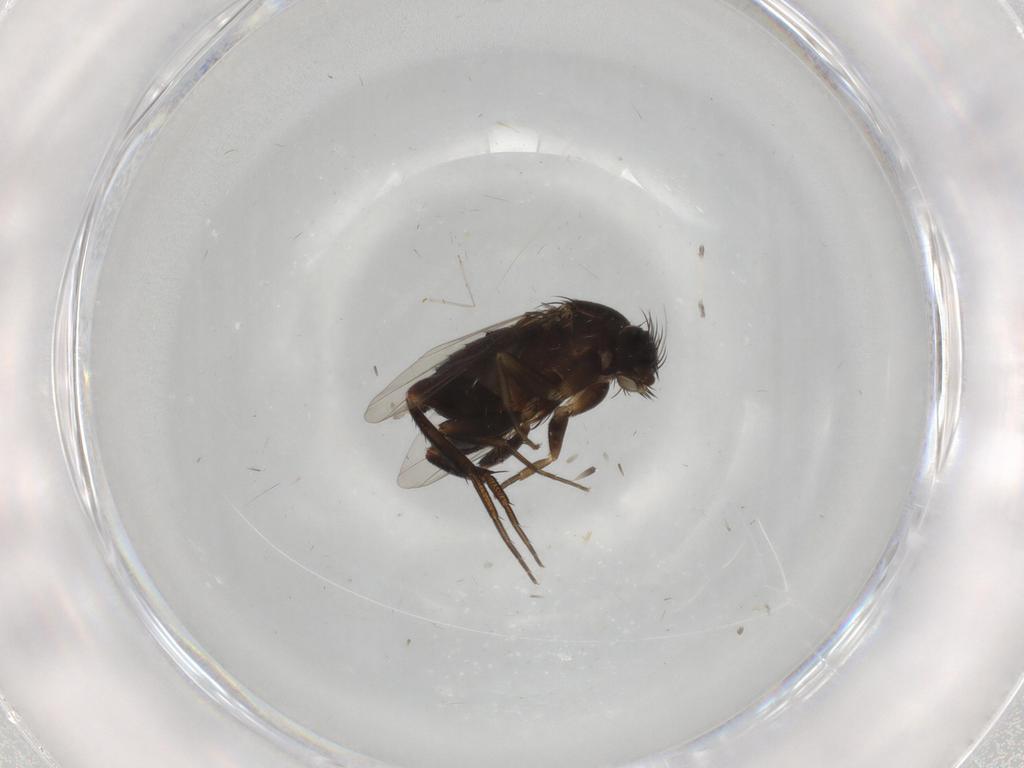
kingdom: Animalia
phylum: Arthropoda
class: Insecta
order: Diptera
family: Phoridae
